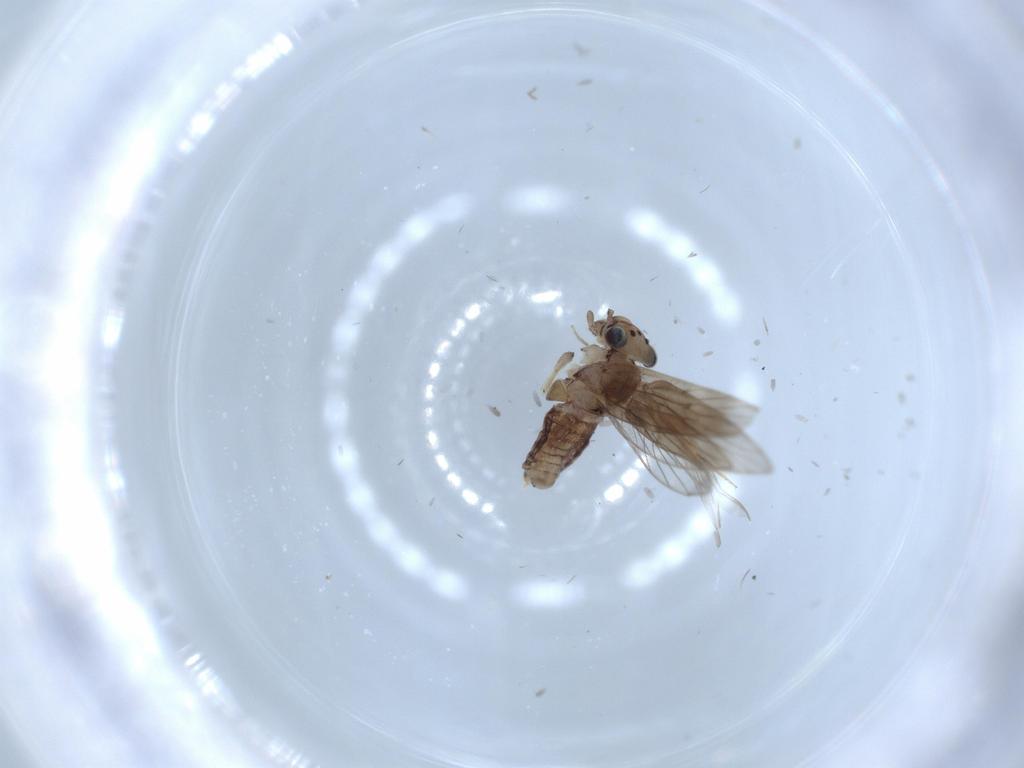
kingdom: Animalia
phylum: Arthropoda
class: Insecta
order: Psocodea
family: Lepidopsocidae
